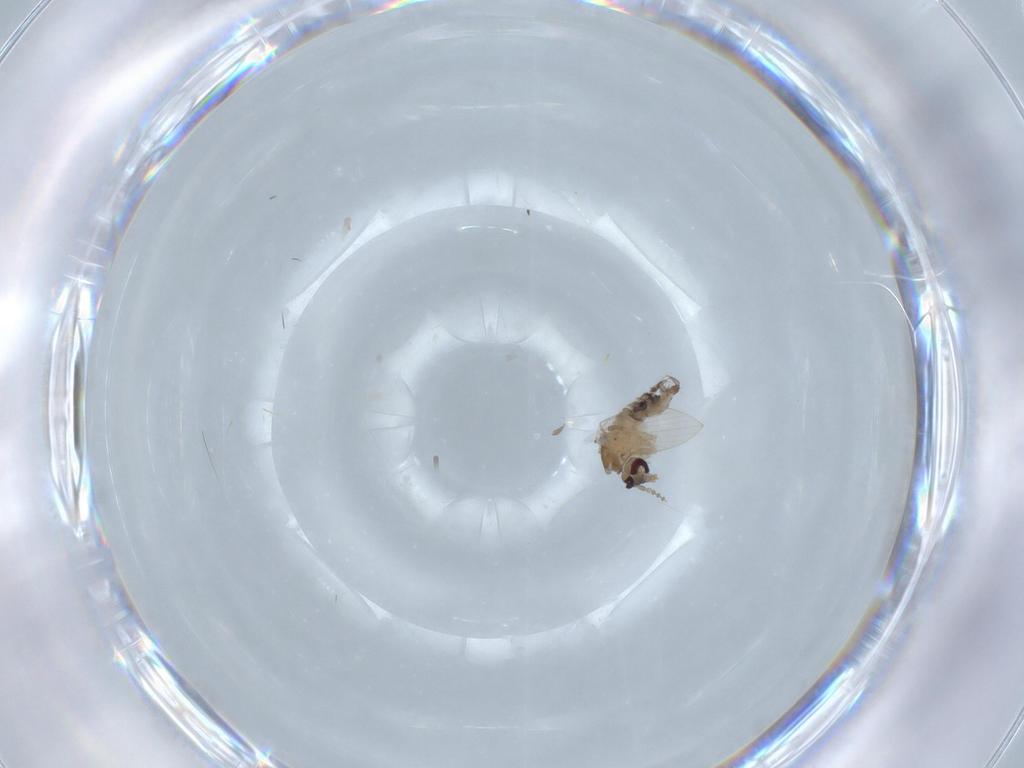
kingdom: Animalia
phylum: Arthropoda
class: Insecta
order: Diptera
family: Psychodidae
